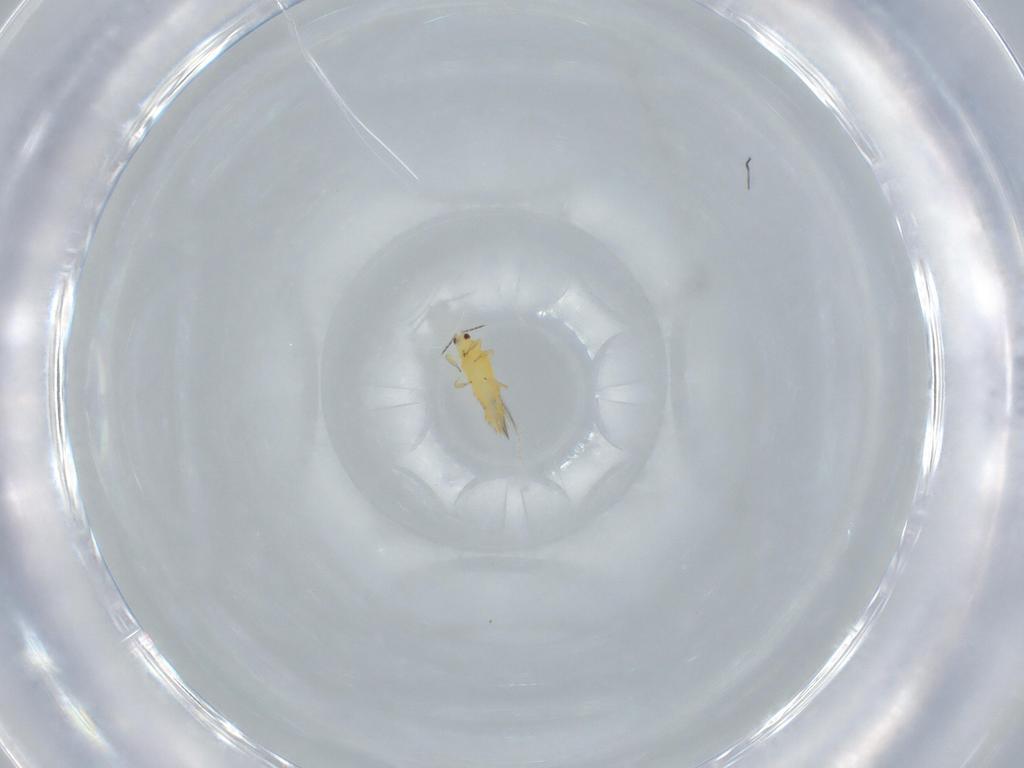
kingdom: Animalia
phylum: Arthropoda
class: Insecta
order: Thysanoptera
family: Thripidae
